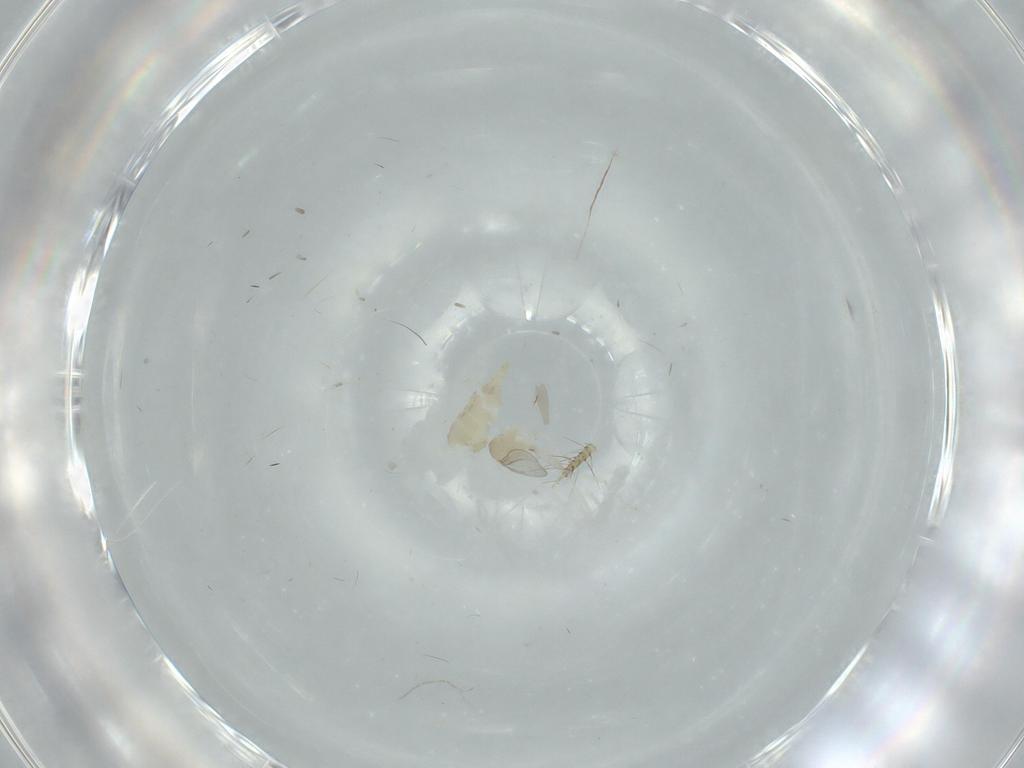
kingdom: Animalia
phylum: Arthropoda
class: Insecta
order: Diptera
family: Cecidomyiidae
